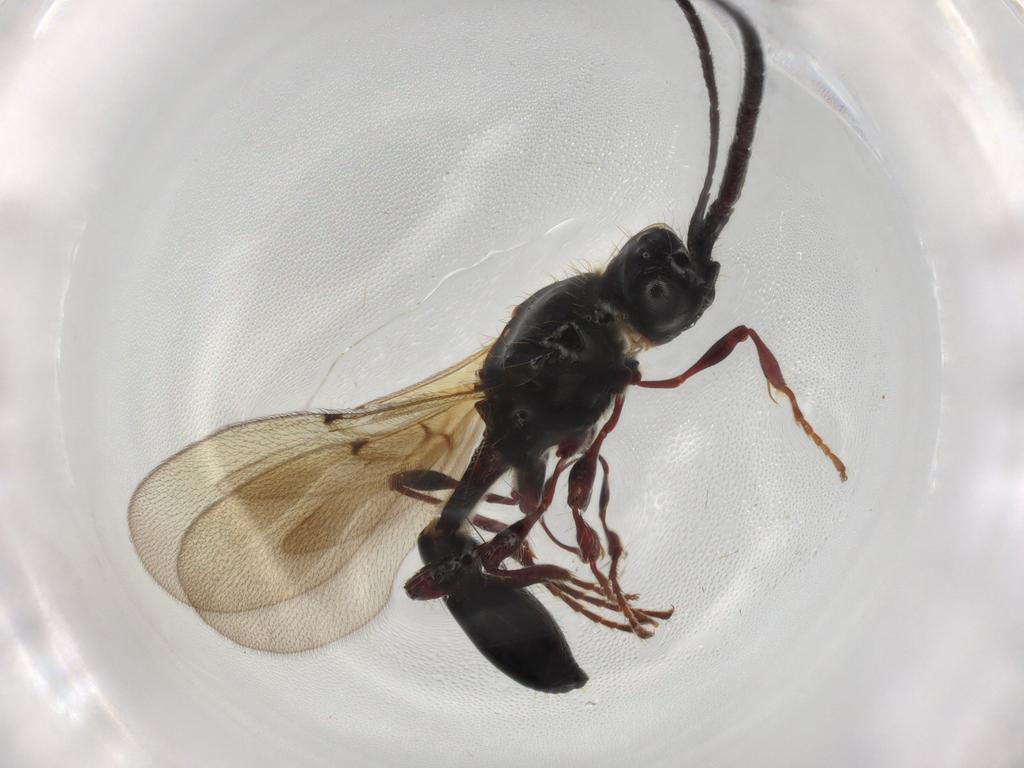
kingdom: Animalia
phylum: Arthropoda
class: Insecta
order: Hymenoptera
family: Diapriidae
